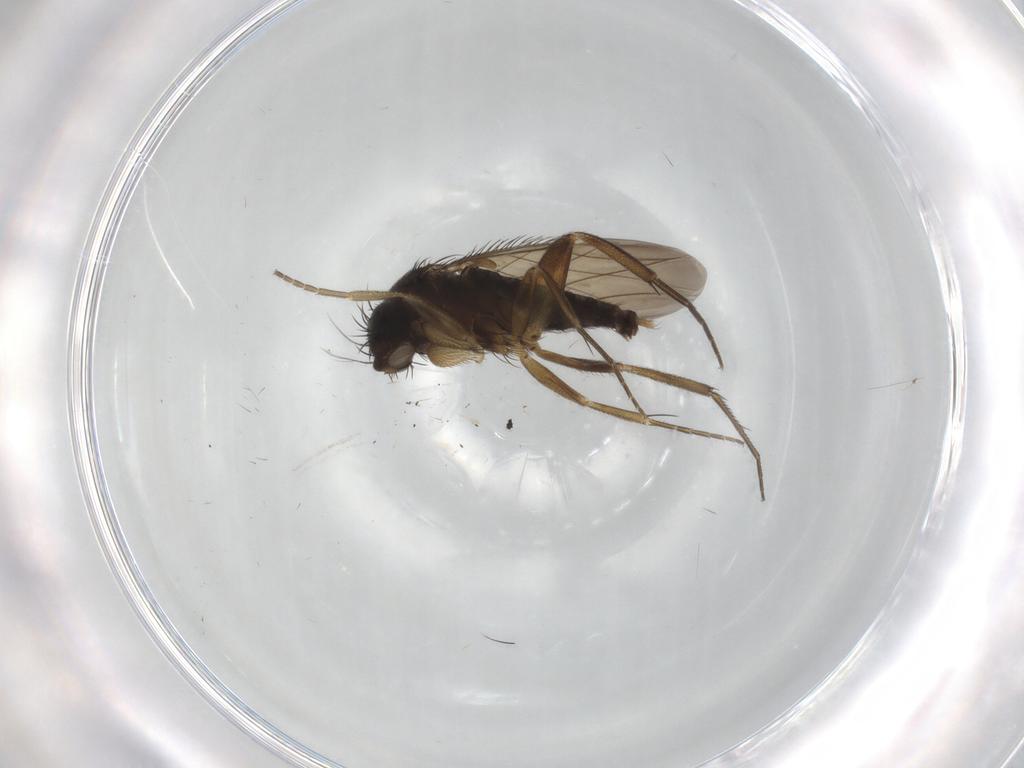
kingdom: Animalia
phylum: Arthropoda
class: Insecta
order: Diptera
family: Phoridae
